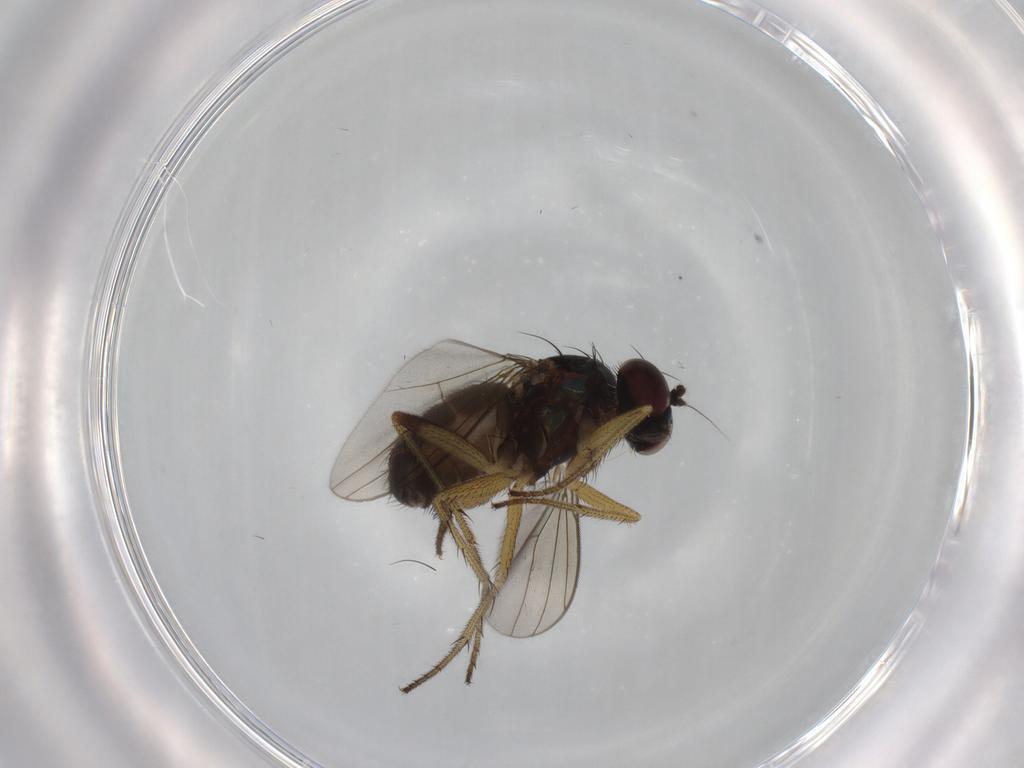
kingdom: Animalia
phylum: Arthropoda
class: Insecta
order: Diptera
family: Dolichopodidae
